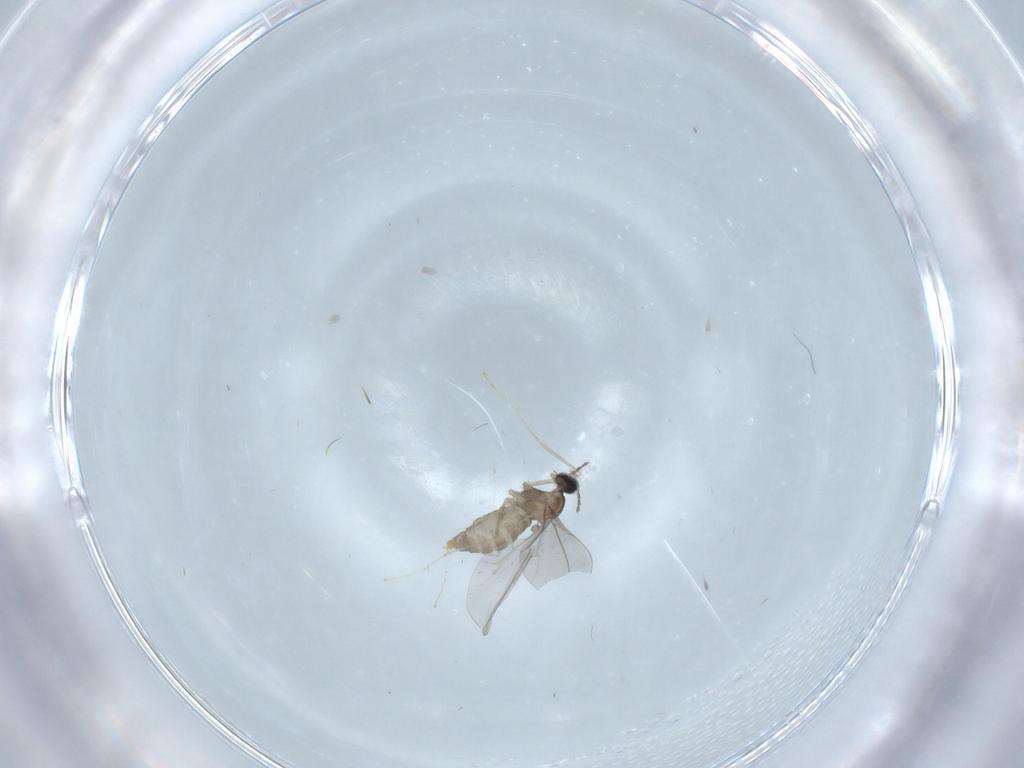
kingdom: Animalia
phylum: Arthropoda
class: Insecta
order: Diptera
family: Cecidomyiidae
